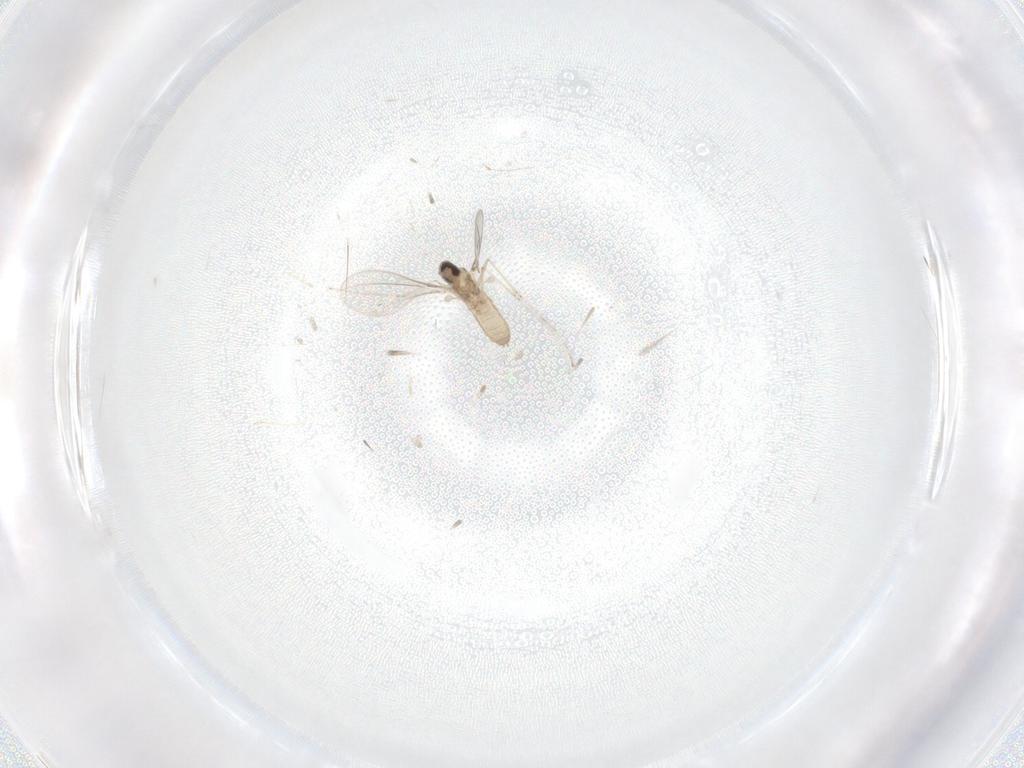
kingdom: Animalia
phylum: Arthropoda
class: Insecta
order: Diptera
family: Cecidomyiidae
